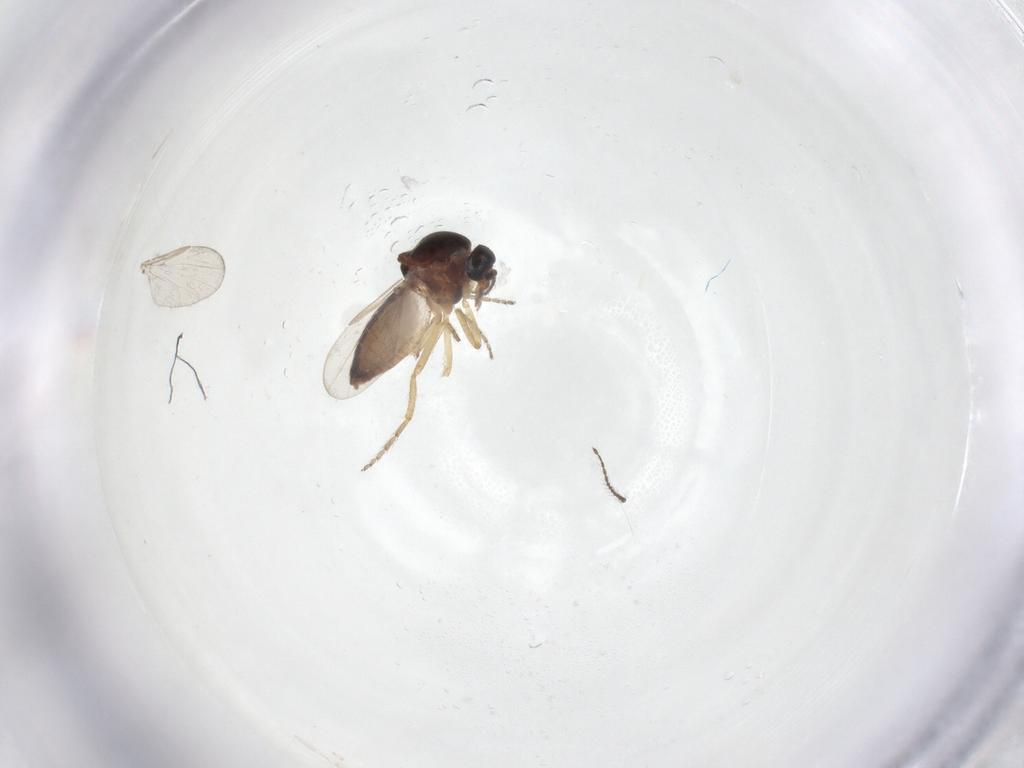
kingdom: Animalia
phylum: Arthropoda
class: Insecta
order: Diptera
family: Ceratopogonidae
